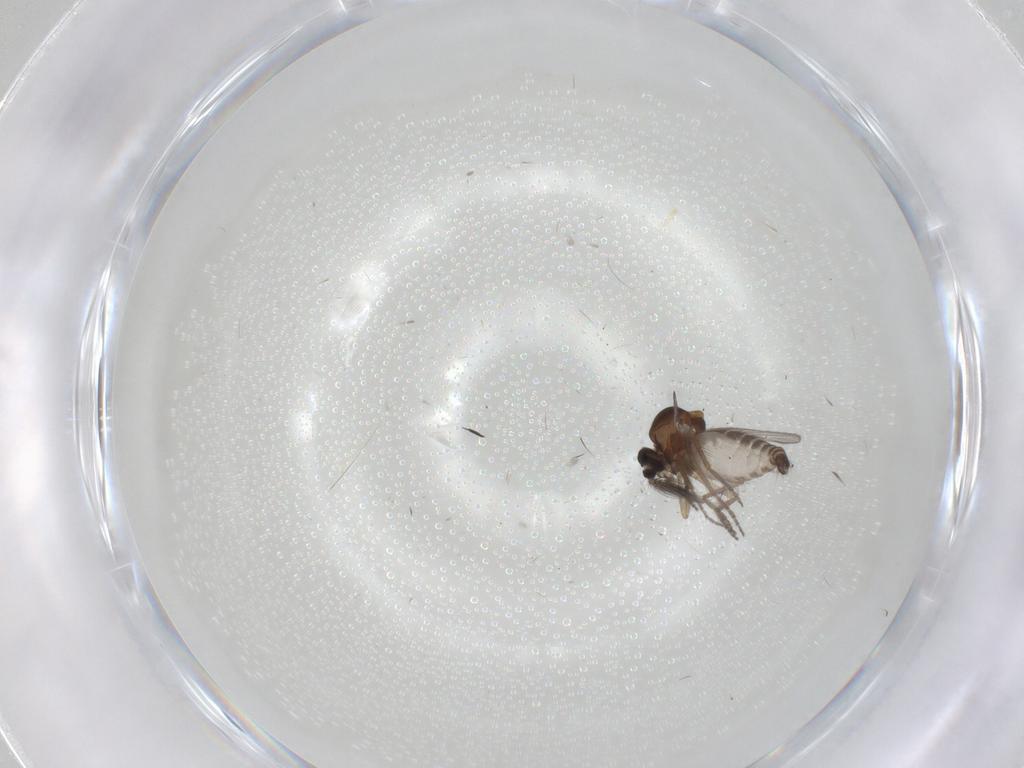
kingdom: Animalia
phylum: Arthropoda
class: Insecta
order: Diptera
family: Ceratopogonidae
